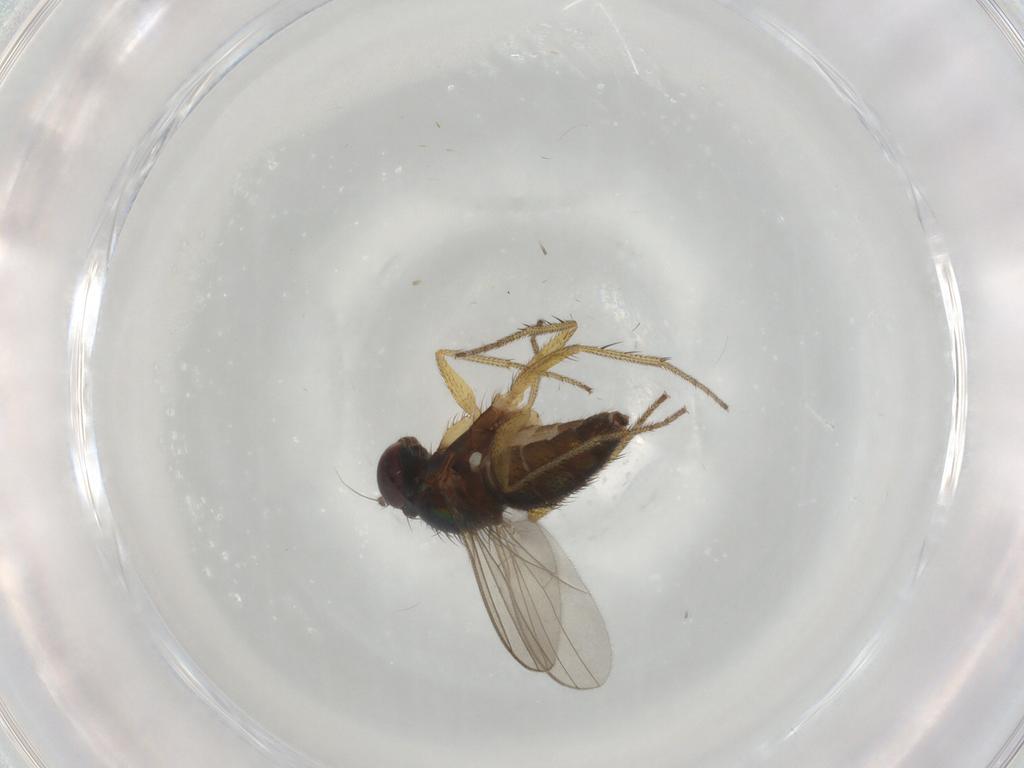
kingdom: Animalia
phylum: Arthropoda
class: Insecta
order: Diptera
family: Dolichopodidae
